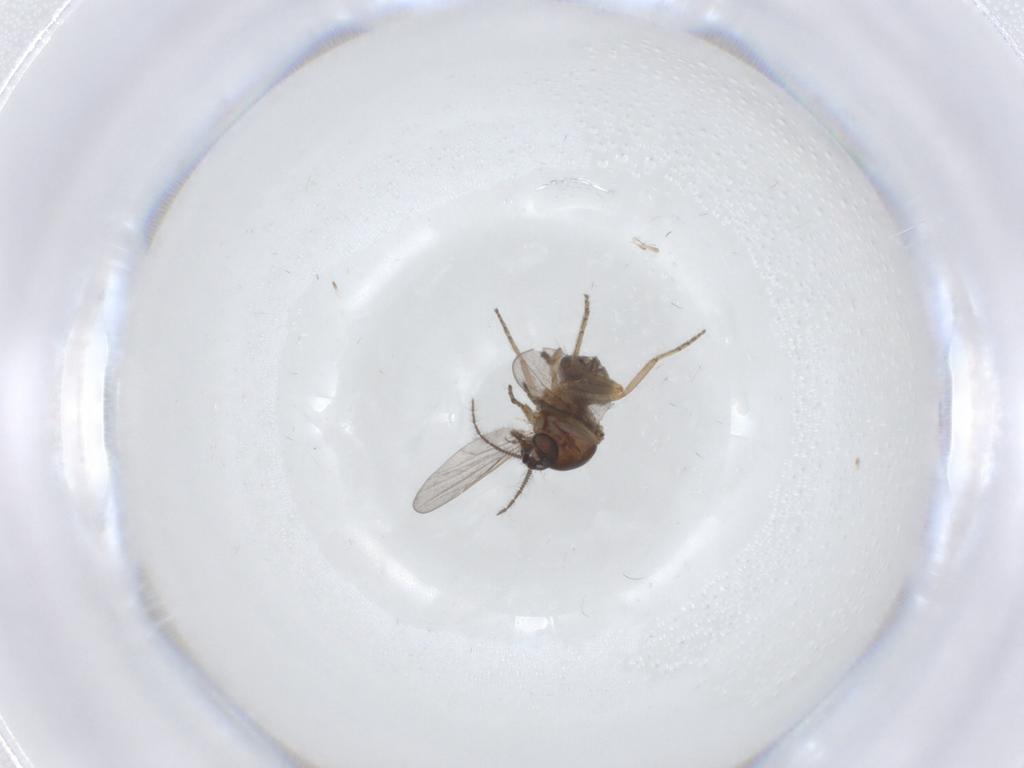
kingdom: Animalia
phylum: Arthropoda
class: Insecta
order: Diptera
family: Ceratopogonidae
